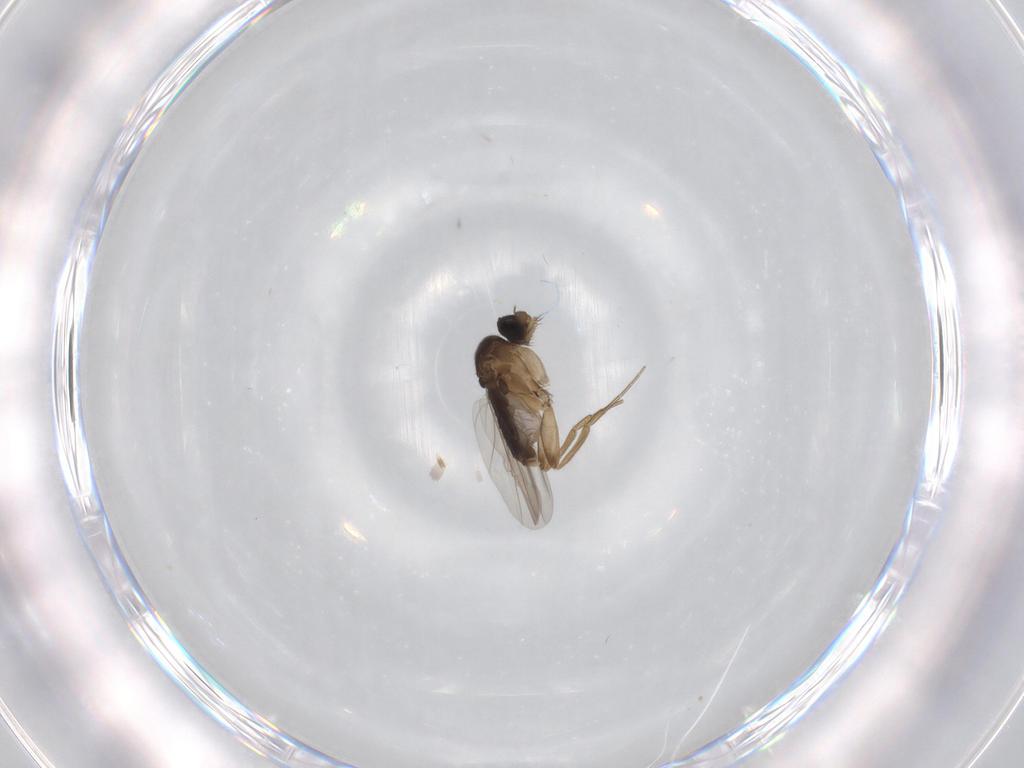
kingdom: Animalia
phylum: Arthropoda
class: Insecta
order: Diptera
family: Phoridae
